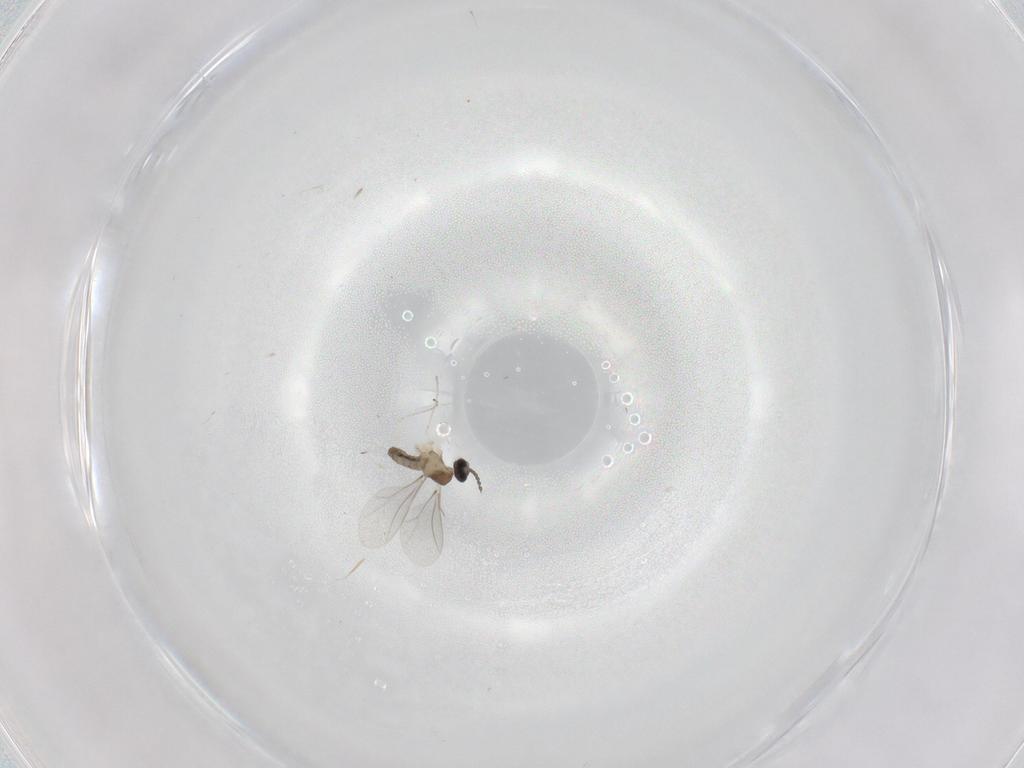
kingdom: Animalia
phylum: Arthropoda
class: Insecta
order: Diptera
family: Cecidomyiidae
